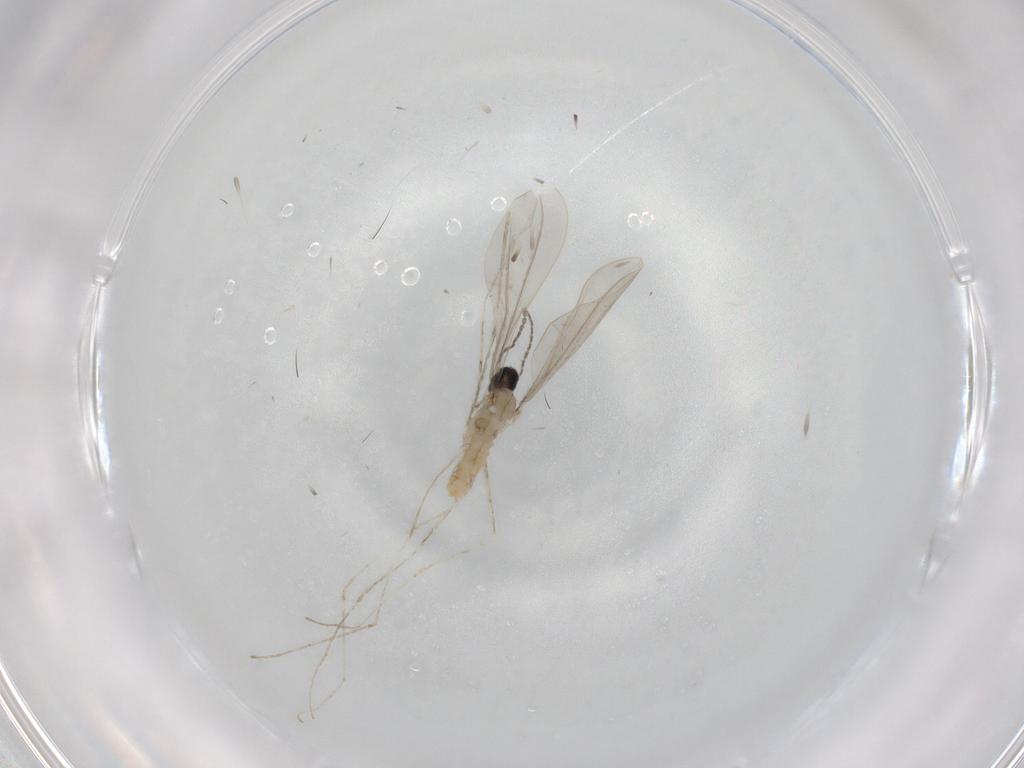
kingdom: Animalia
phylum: Arthropoda
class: Insecta
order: Diptera
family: Tipulidae
